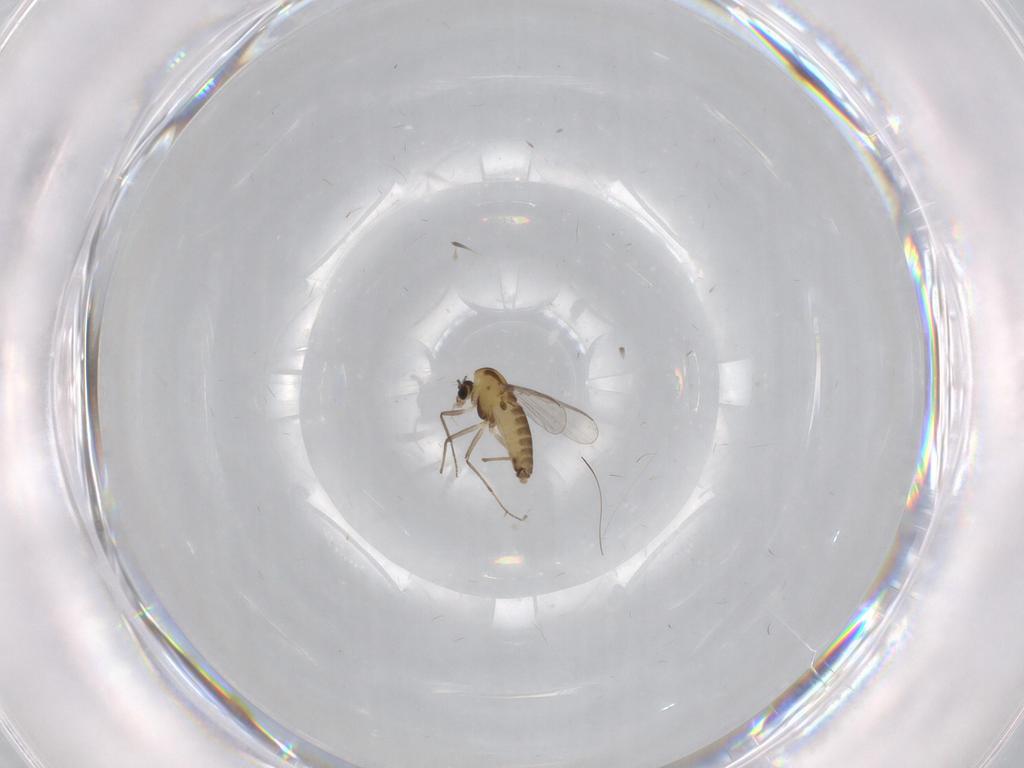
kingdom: Animalia
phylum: Arthropoda
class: Insecta
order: Diptera
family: Chironomidae
